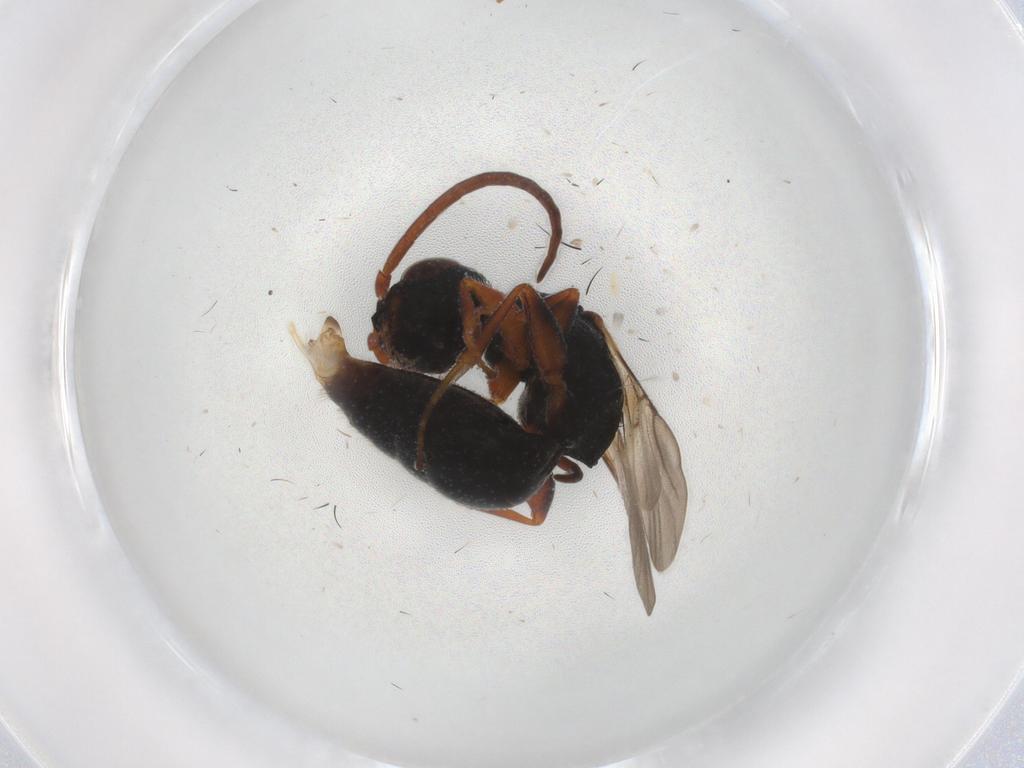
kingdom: Animalia
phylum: Arthropoda
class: Insecta
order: Hymenoptera
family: Bethylidae
